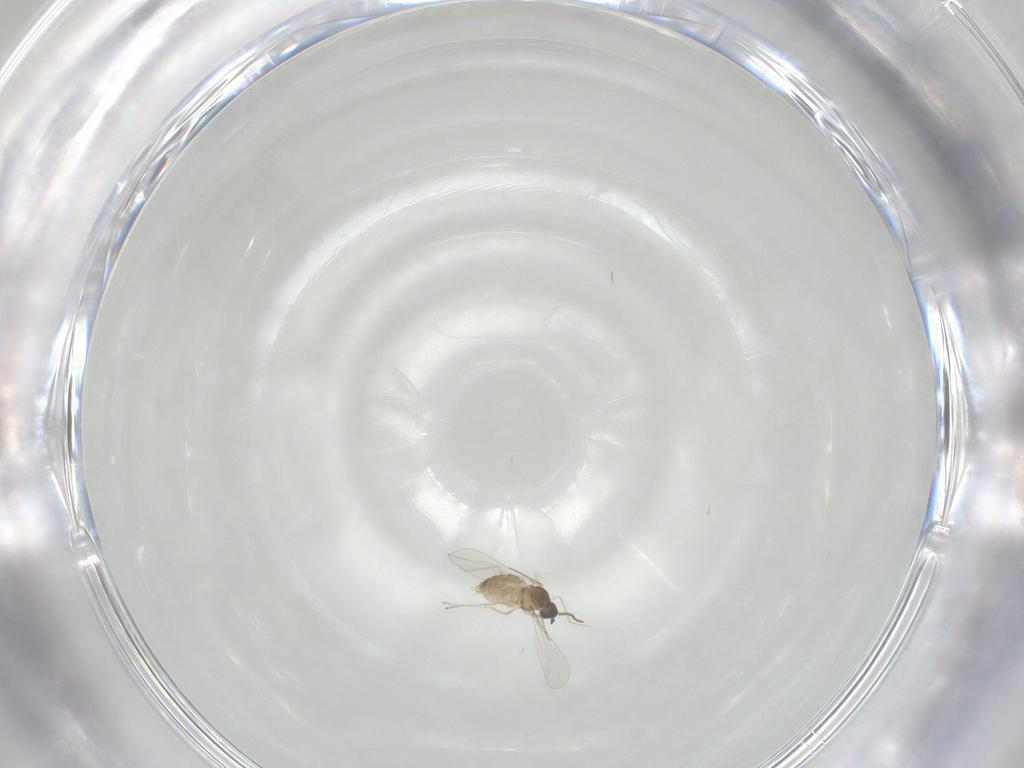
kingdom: Animalia
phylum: Arthropoda
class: Insecta
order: Diptera
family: Cecidomyiidae
